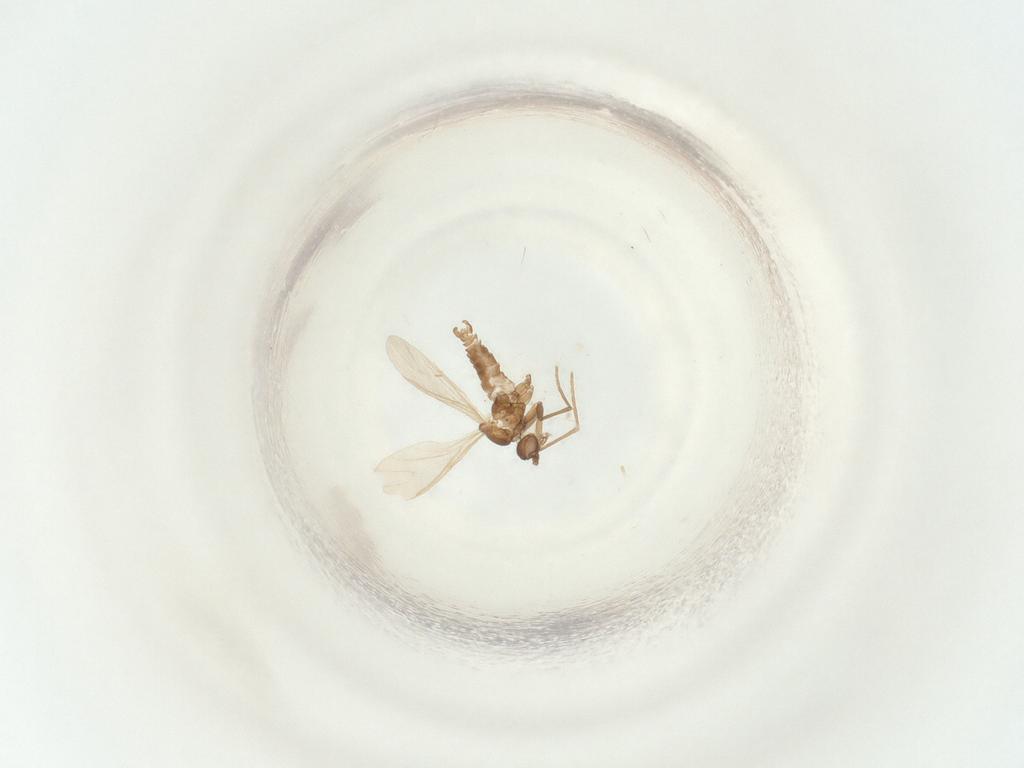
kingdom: Animalia
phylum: Arthropoda
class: Insecta
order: Diptera
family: Sciaridae
